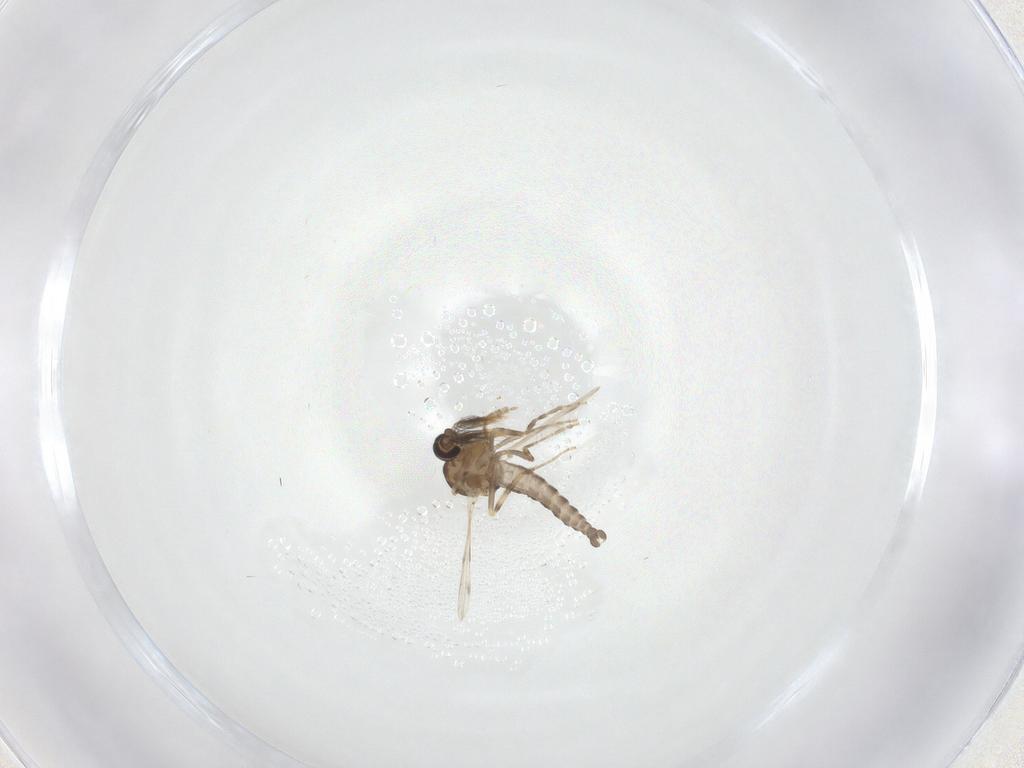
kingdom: Animalia
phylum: Arthropoda
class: Insecta
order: Diptera
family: Ceratopogonidae
